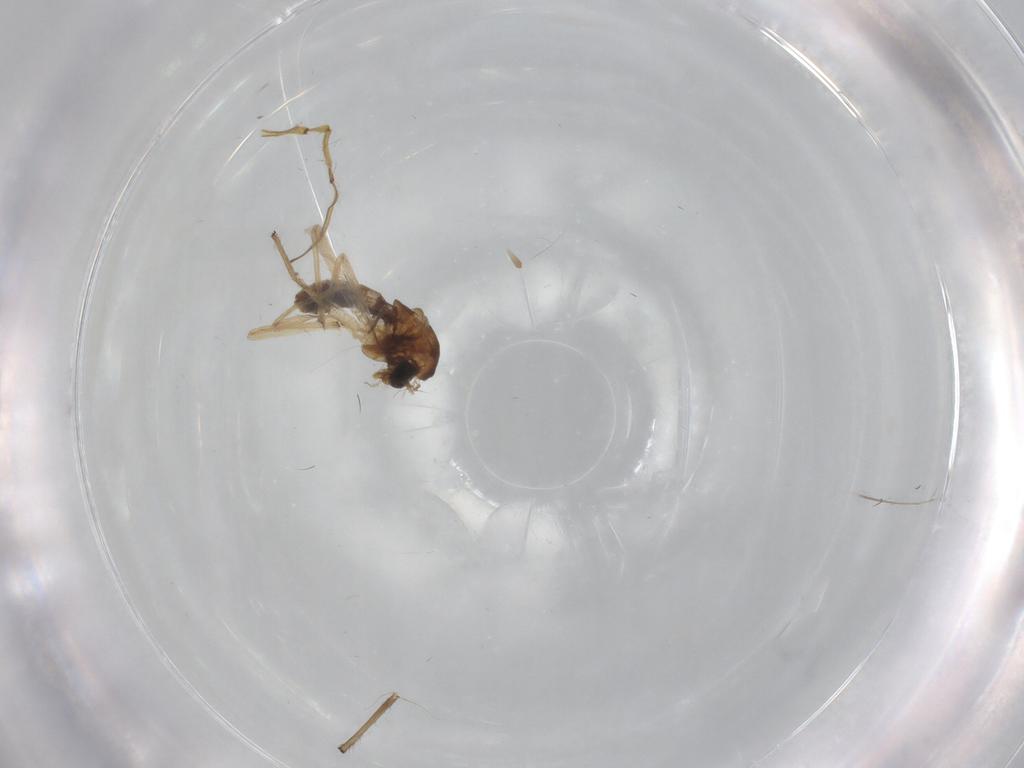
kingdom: Animalia
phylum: Arthropoda
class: Insecta
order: Diptera
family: Chironomidae
